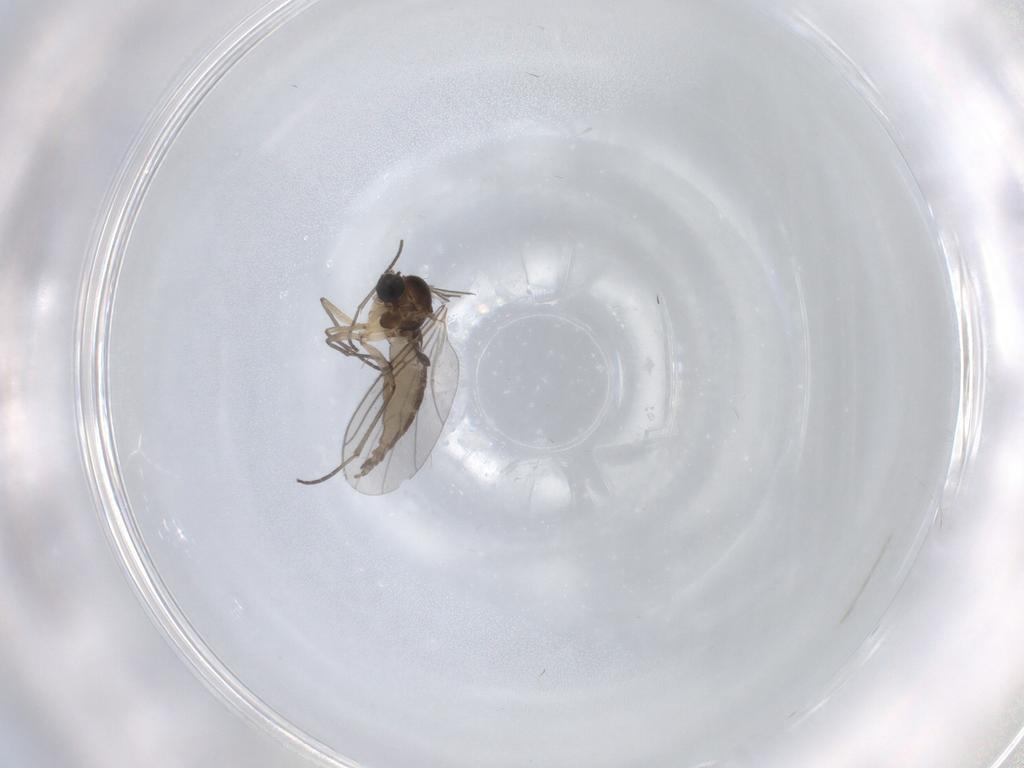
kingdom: Animalia
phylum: Arthropoda
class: Insecta
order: Diptera
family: Sciaridae
